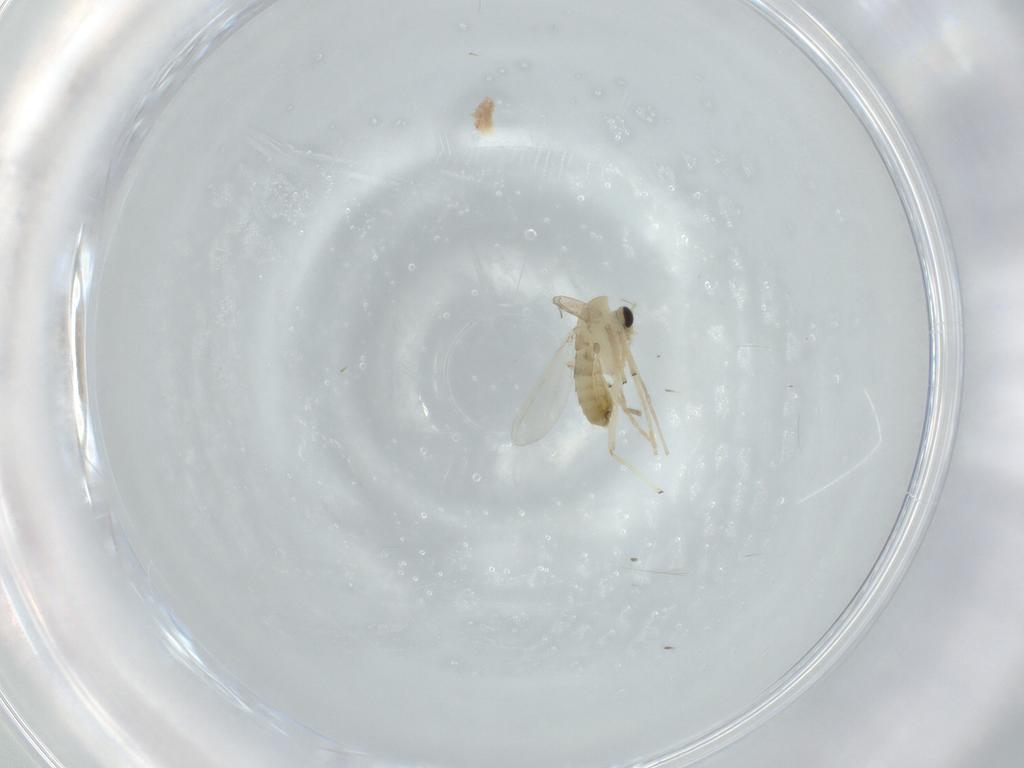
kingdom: Animalia
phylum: Arthropoda
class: Insecta
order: Diptera
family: Chironomidae
